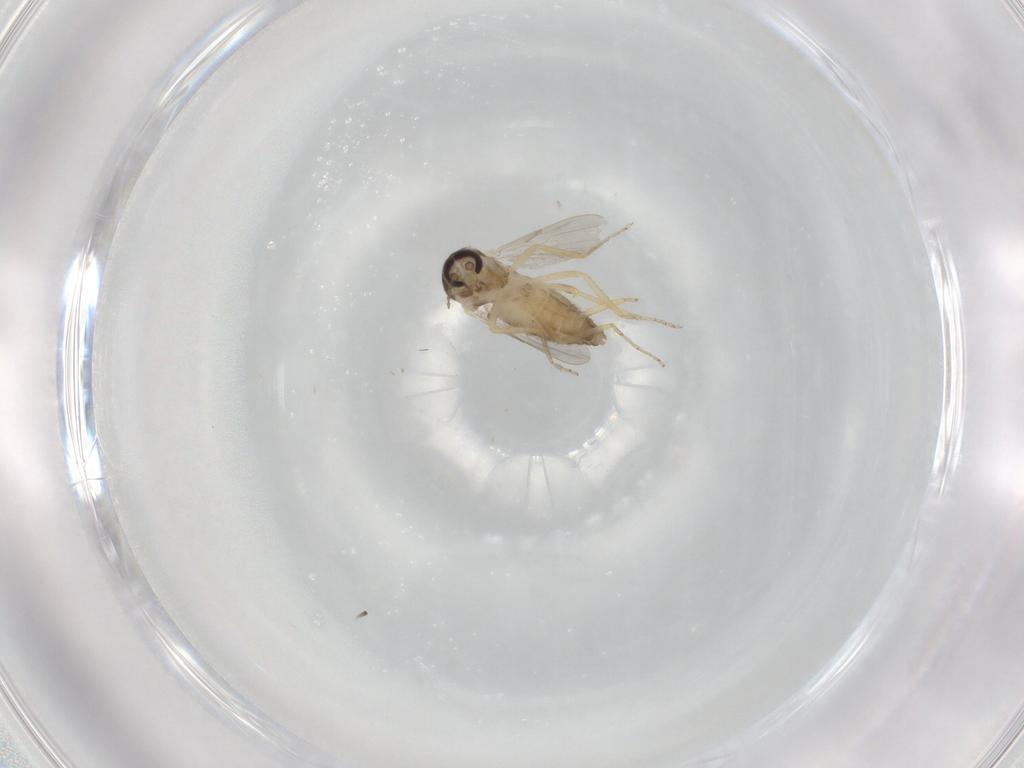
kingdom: Animalia
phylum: Arthropoda
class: Insecta
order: Diptera
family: Ceratopogonidae
